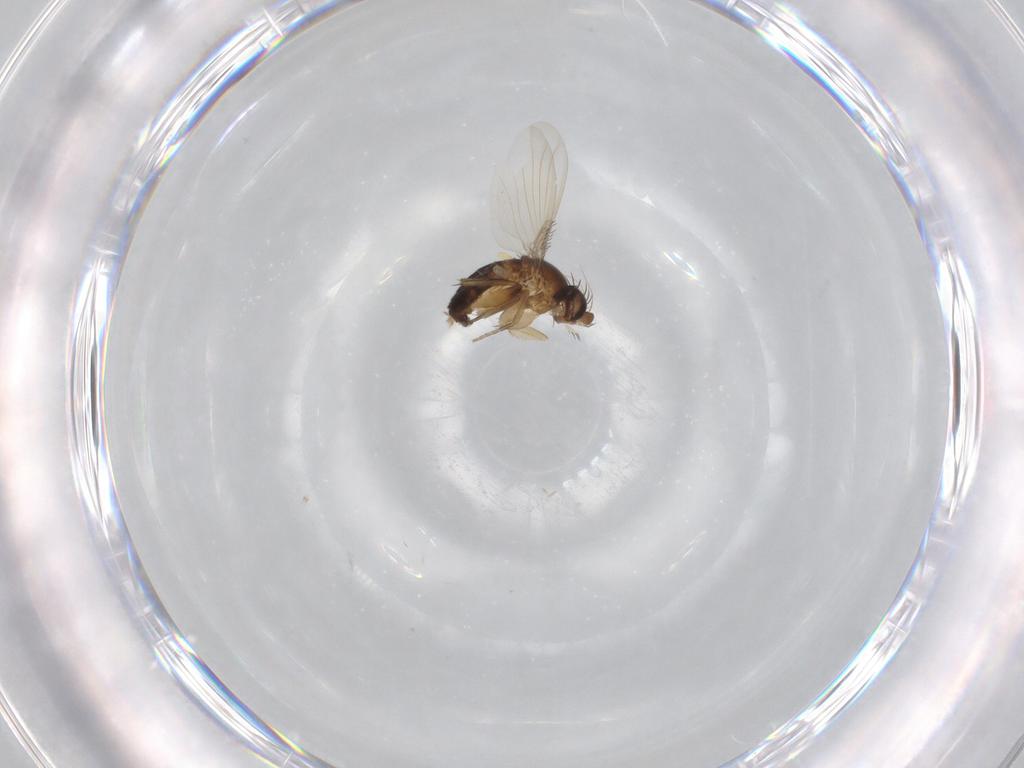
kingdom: Animalia
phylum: Arthropoda
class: Insecta
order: Diptera
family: Phoridae
